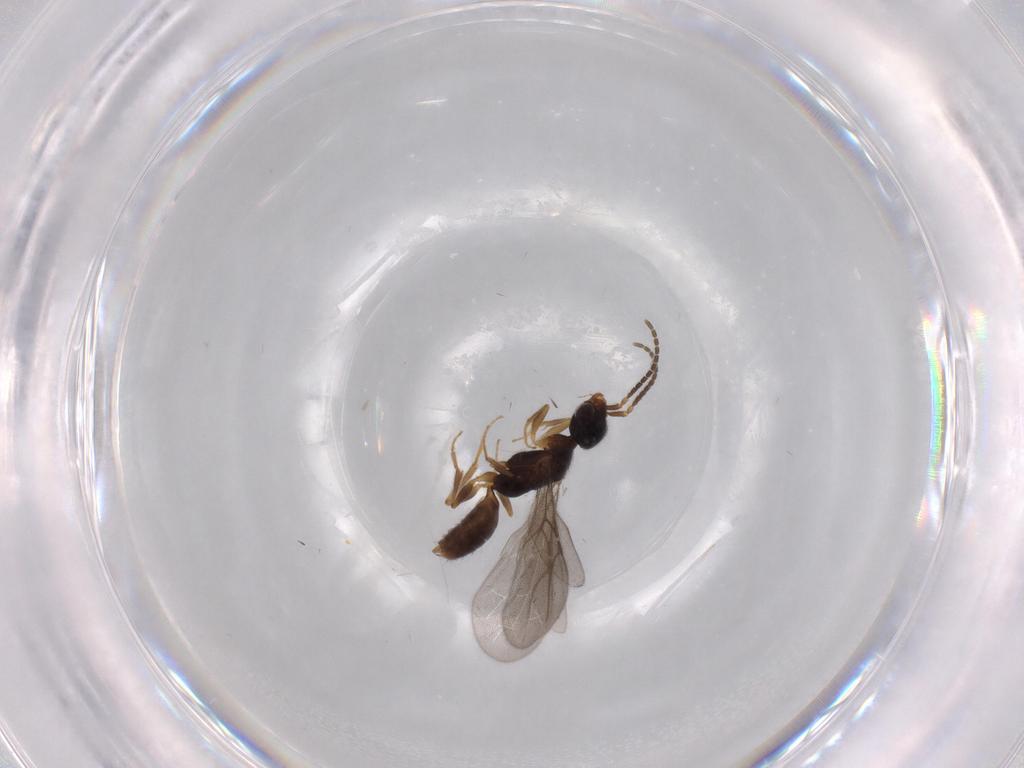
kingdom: Animalia
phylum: Arthropoda
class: Insecta
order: Hymenoptera
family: Bethylidae
